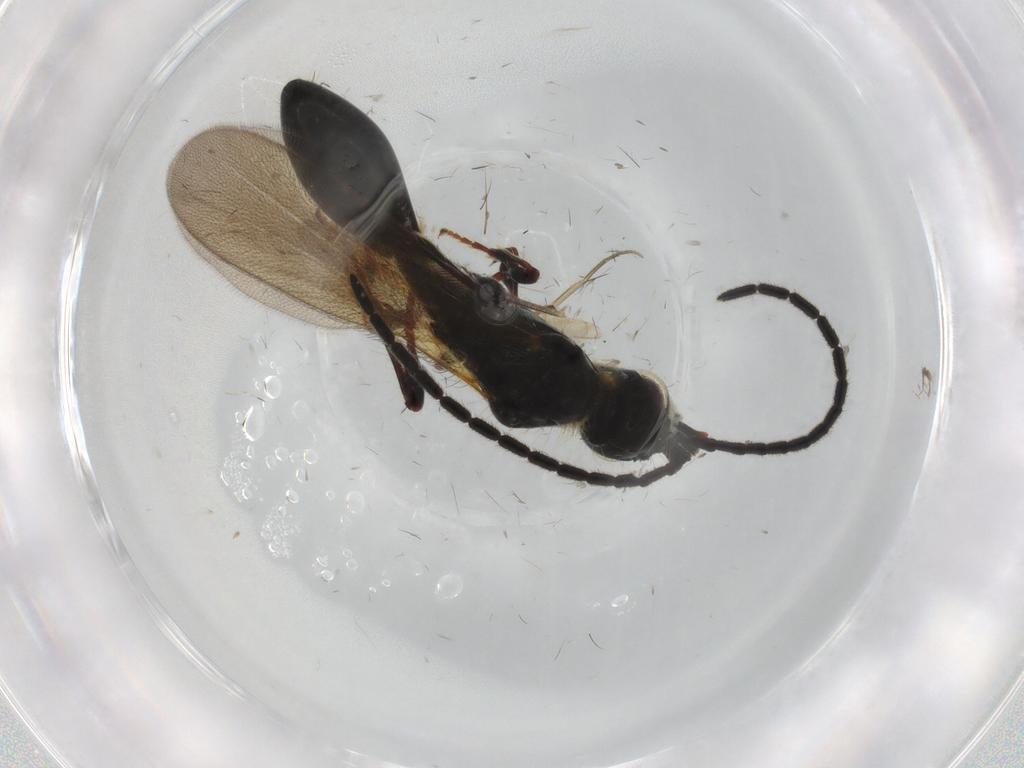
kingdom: Animalia
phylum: Arthropoda
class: Insecta
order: Hymenoptera
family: Diapriidae
